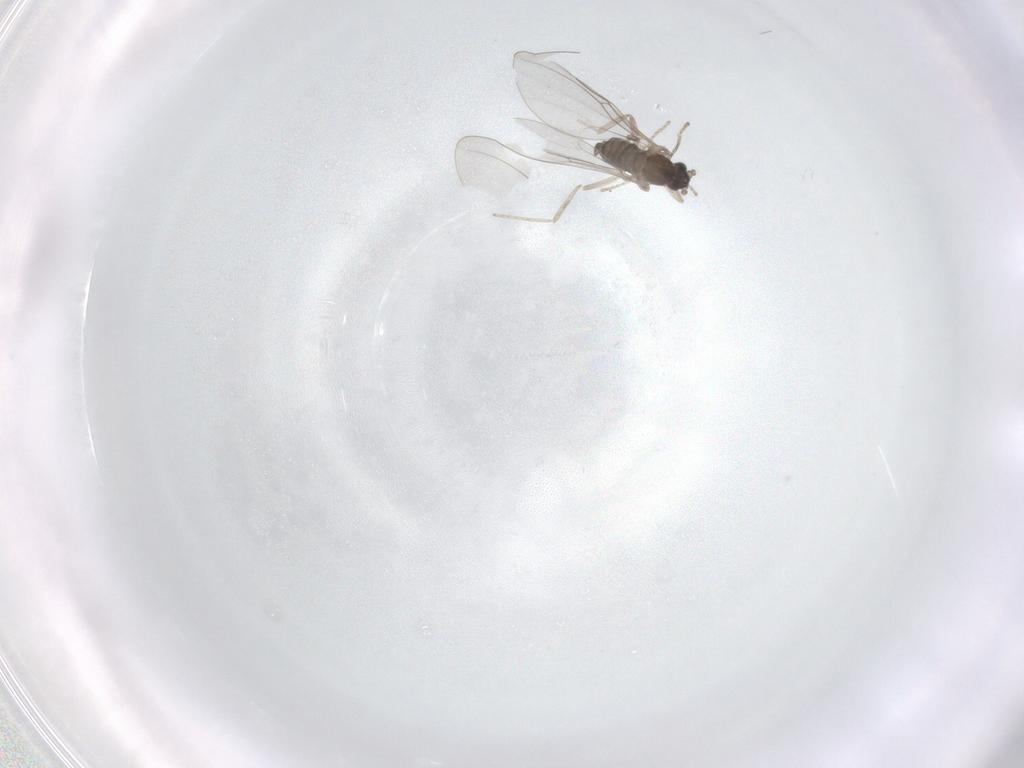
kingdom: Animalia
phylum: Arthropoda
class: Insecta
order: Diptera
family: Cecidomyiidae
